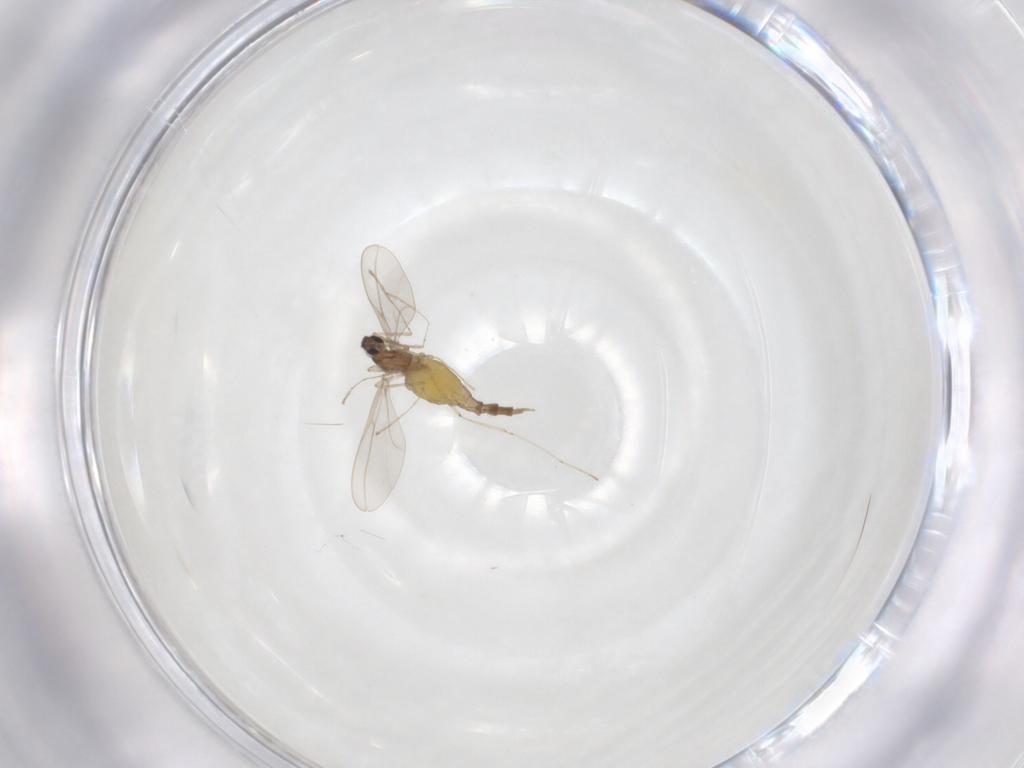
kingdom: Animalia
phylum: Arthropoda
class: Insecta
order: Diptera
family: Cecidomyiidae
